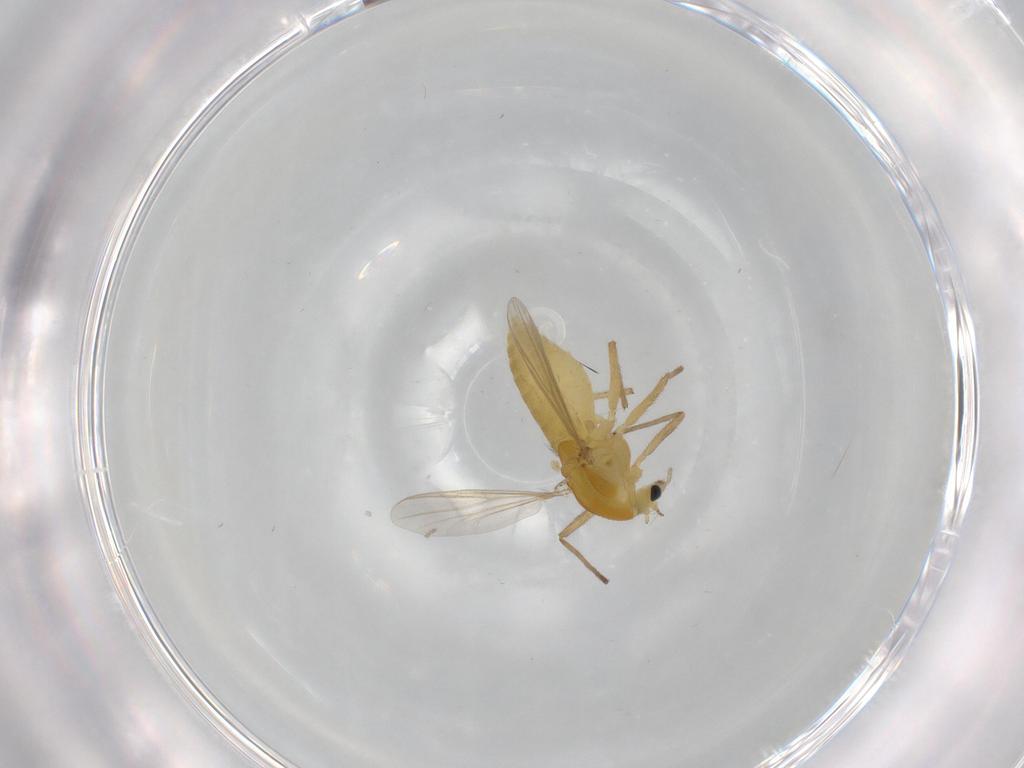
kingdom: Animalia
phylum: Arthropoda
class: Insecta
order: Diptera
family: Chironomidae
